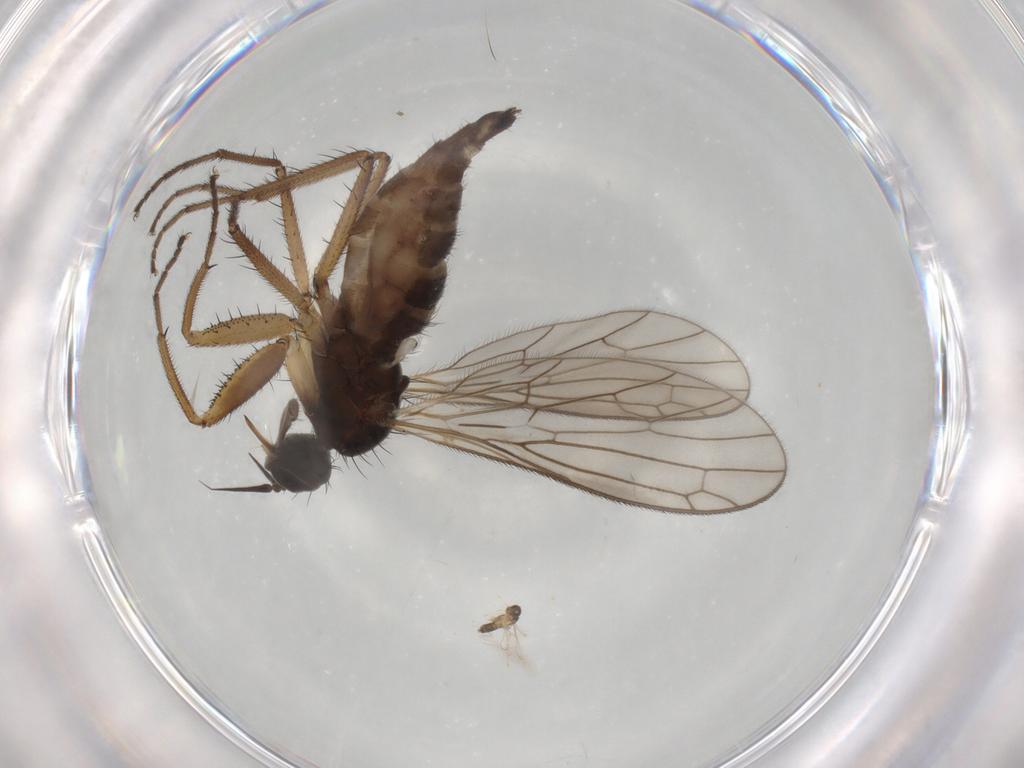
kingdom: Animalia
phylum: Arthropoda
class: Insecta
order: Diptera
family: Cecidomyiidae
